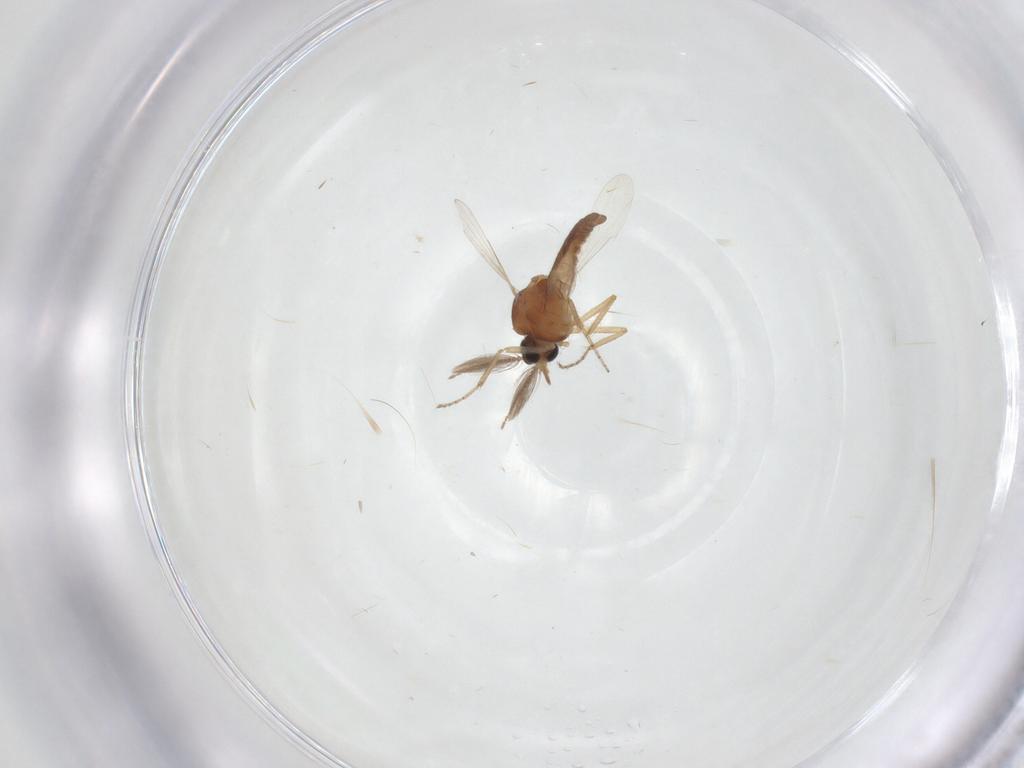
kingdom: Animalia
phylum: Arthropoda
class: Insecta
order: Diptera
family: Ceratopogonidae
